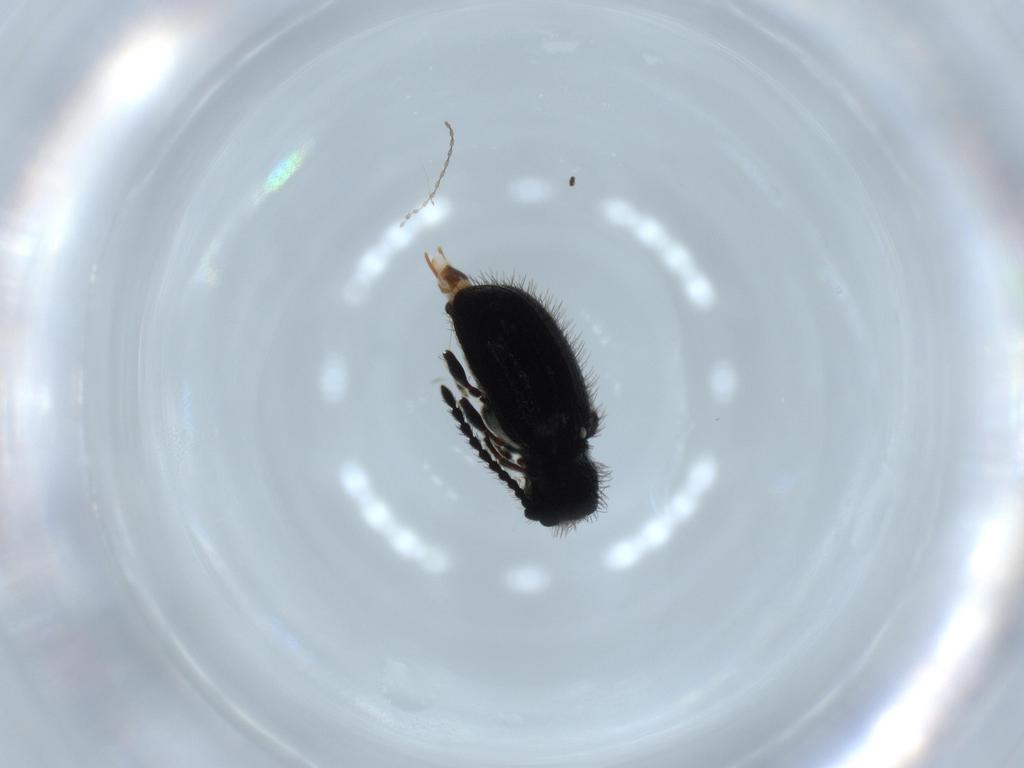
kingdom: Animalia
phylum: Arthropoda
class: Insecta
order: Coleoptera
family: Ptinidae
